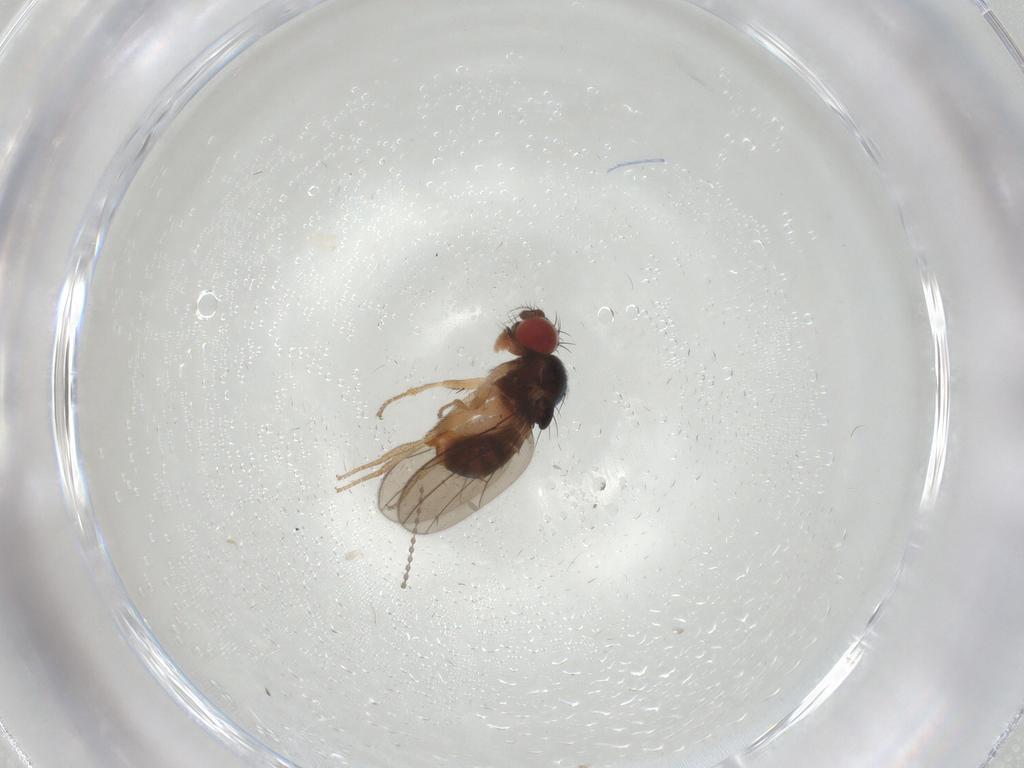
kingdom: Animalia
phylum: Arthropoda
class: Insecta
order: Diptera
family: Drosophilidae
